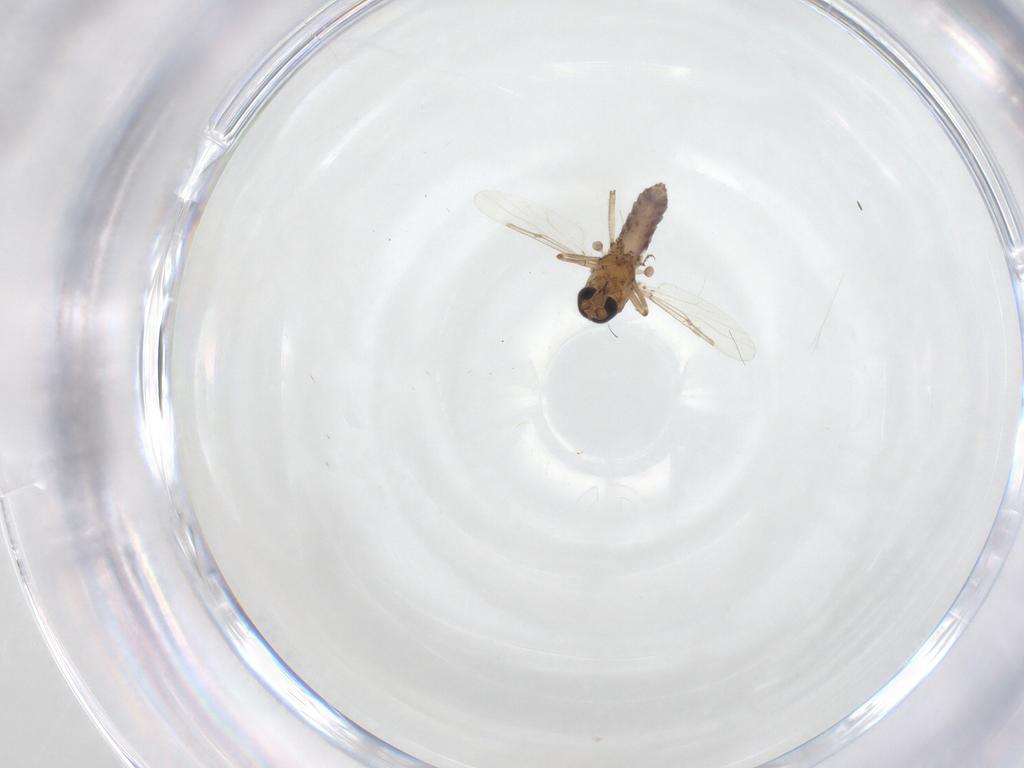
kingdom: Animalia
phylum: Arthropoda
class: Insecta
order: Diptera
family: Ceratopogonidae
